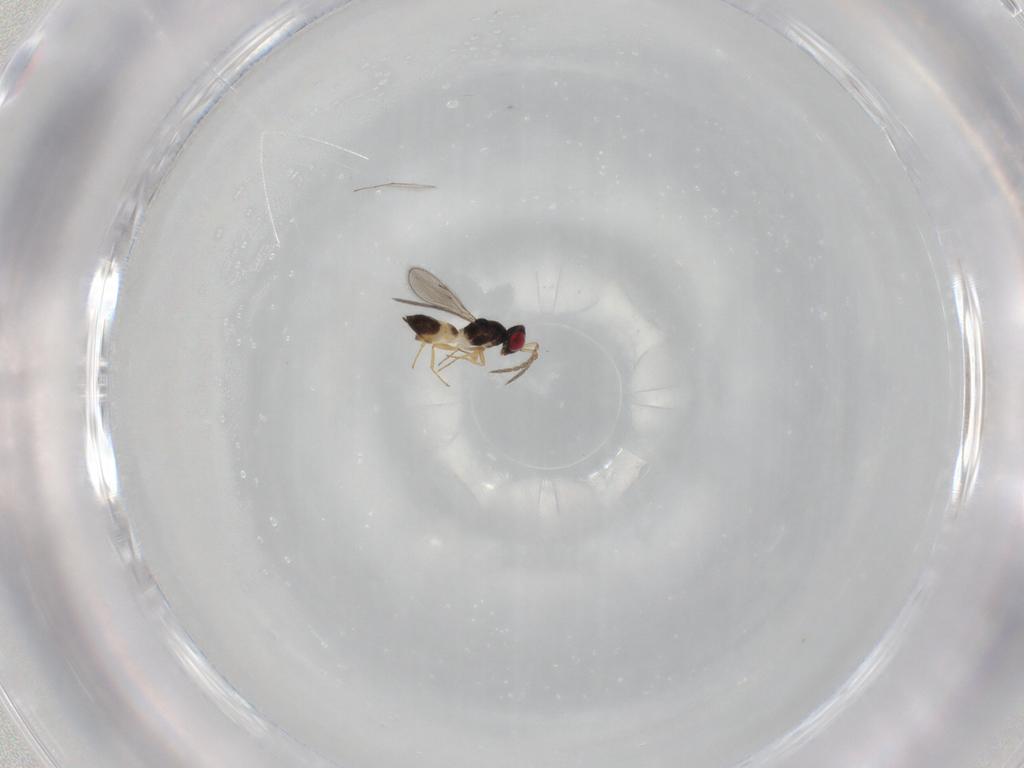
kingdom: Animalia
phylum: Arthropoda
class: Insecta
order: Hymenoptera
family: Eulophidae
